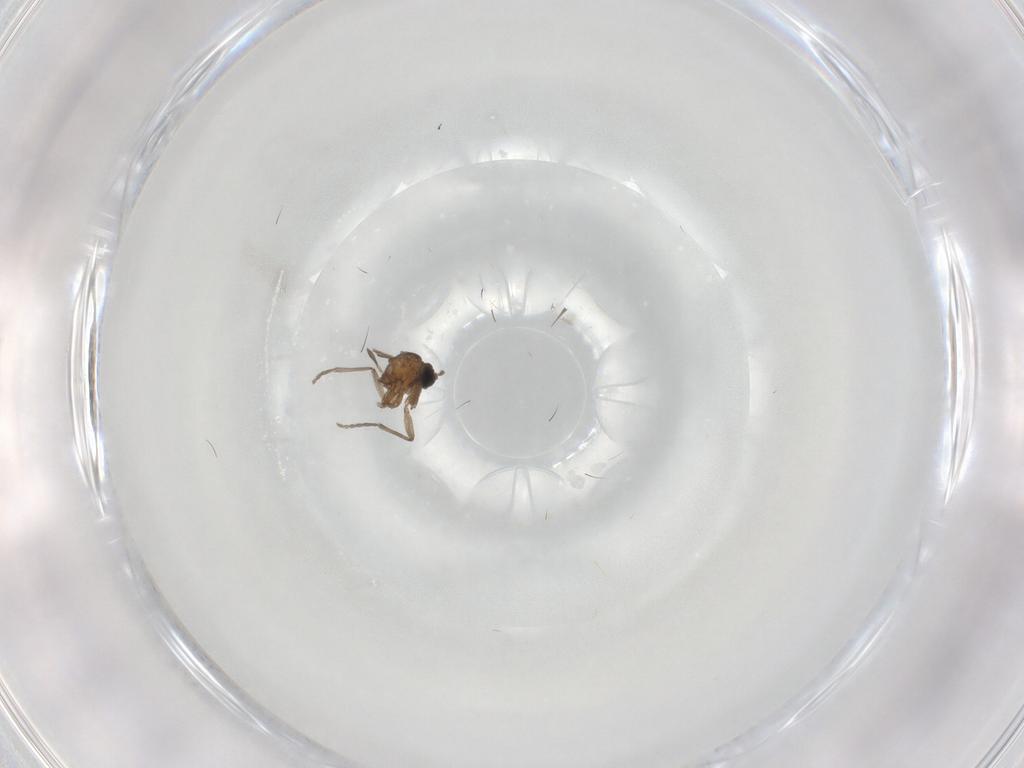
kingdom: Animalia
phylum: Arthropoda
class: Insecta
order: Diptera
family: Sciaridae
